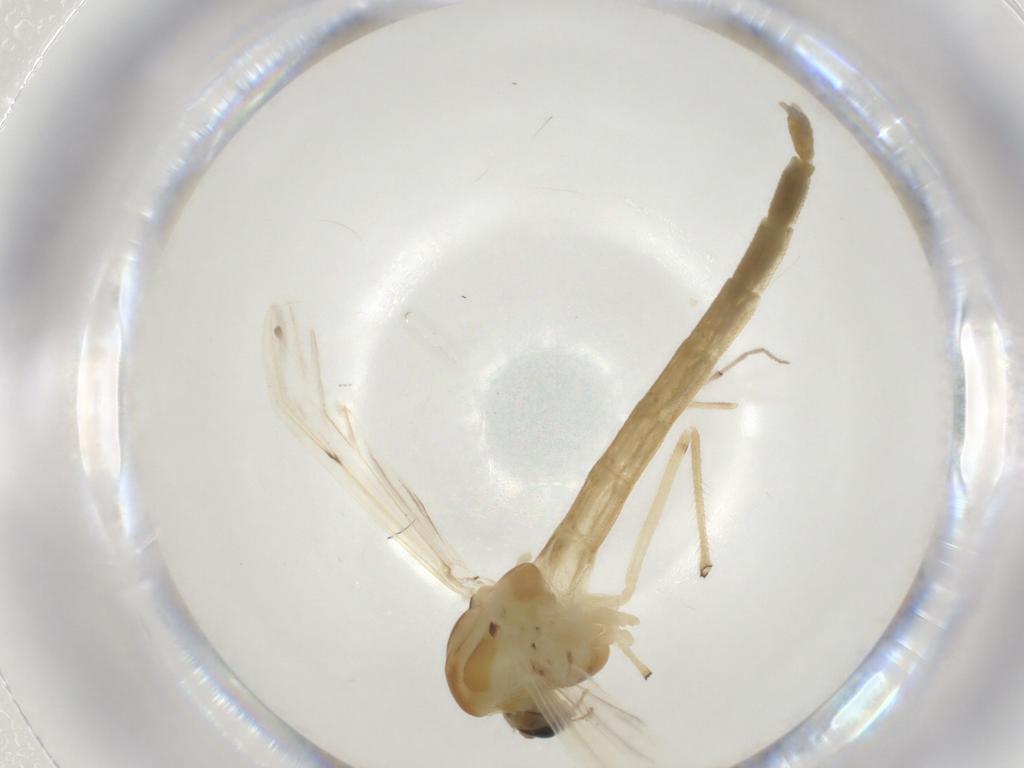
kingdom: Animalia
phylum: Arthropoda
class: Insecta
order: Diptera
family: Chironomidae
